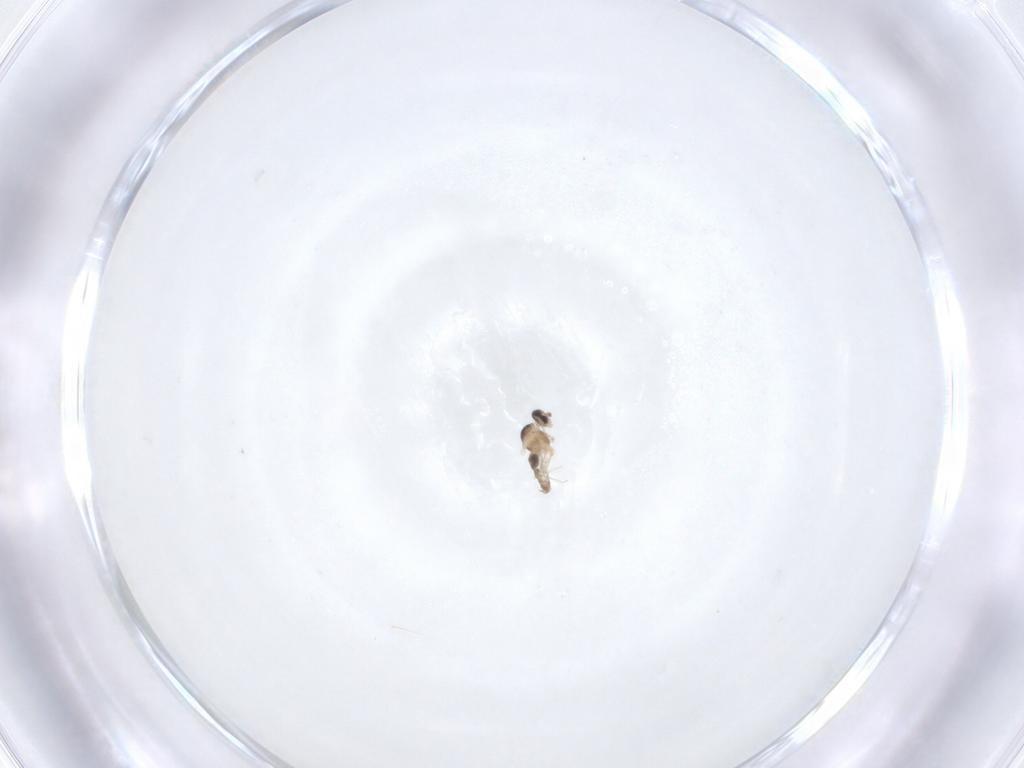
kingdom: Animalia
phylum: Arthropoda
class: Insecta
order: Diptera
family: Cecidomyiidae
